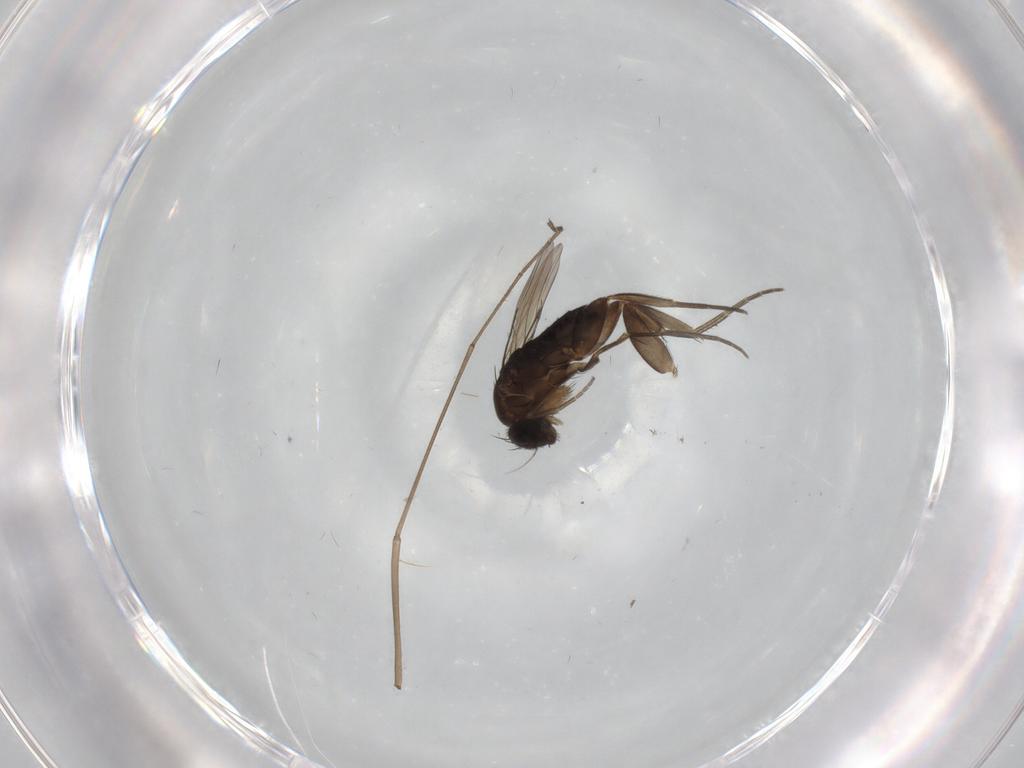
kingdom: Animalia
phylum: Arthropoda
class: Insecta
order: Diptera
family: Phoridae
